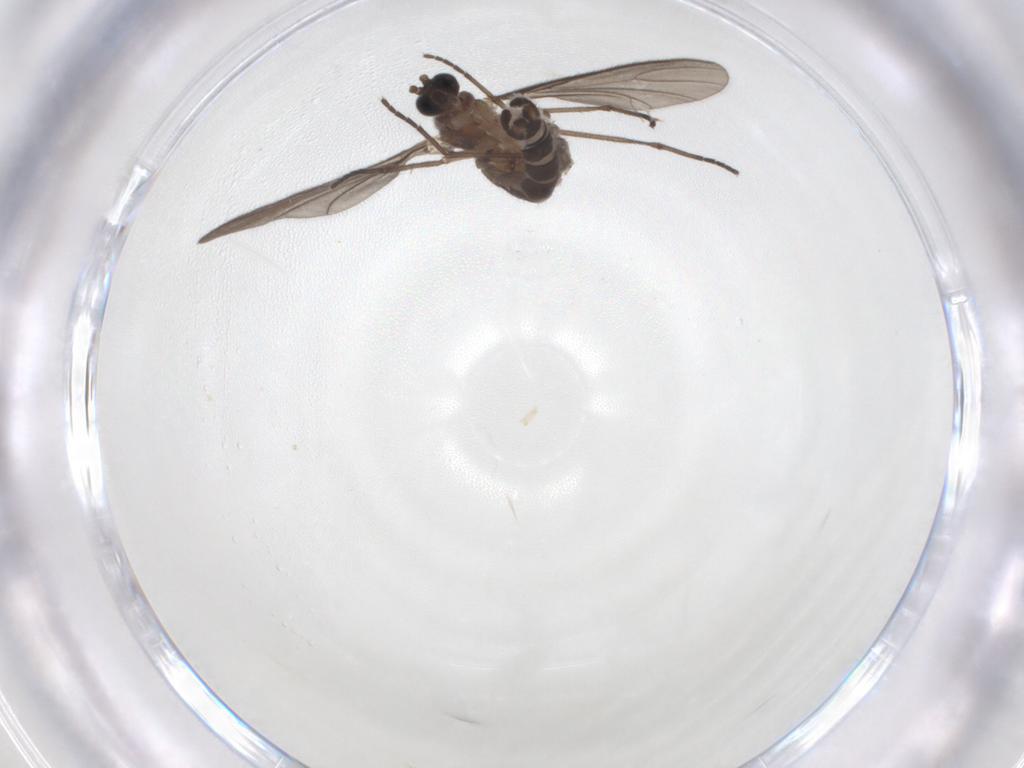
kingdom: Animalia
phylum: Arthropoda
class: Insecta
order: Diptera
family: Sciaridae
